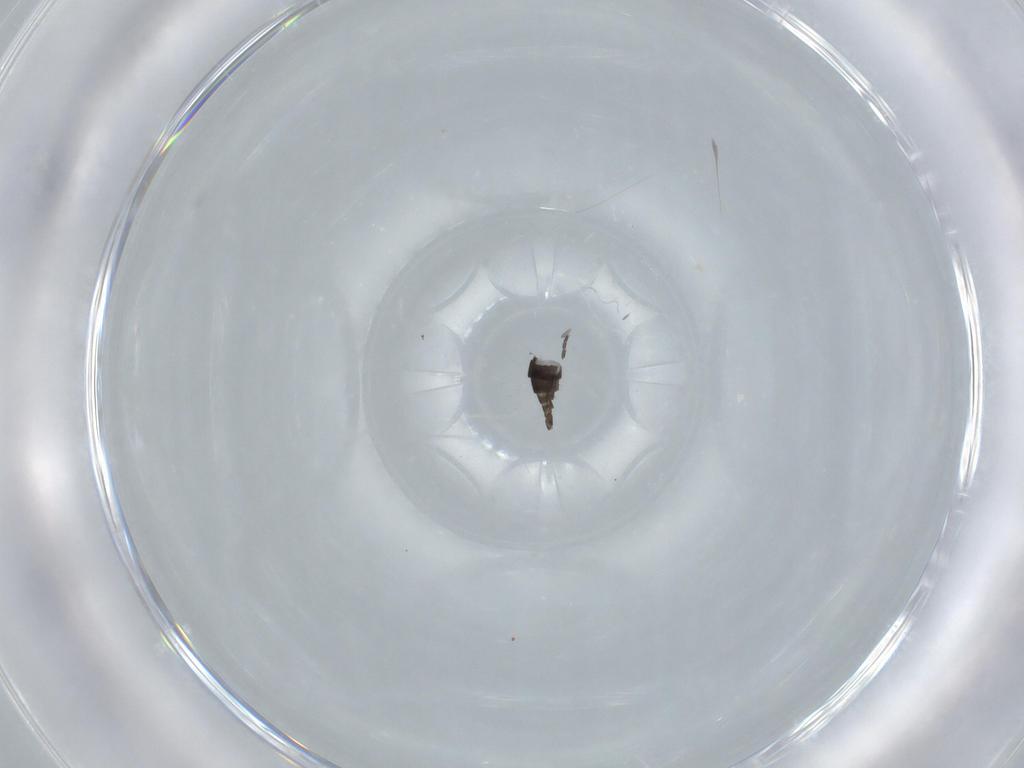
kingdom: Animalia
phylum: Arthropoda
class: Insecta
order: Diptera
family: Sciaridae
